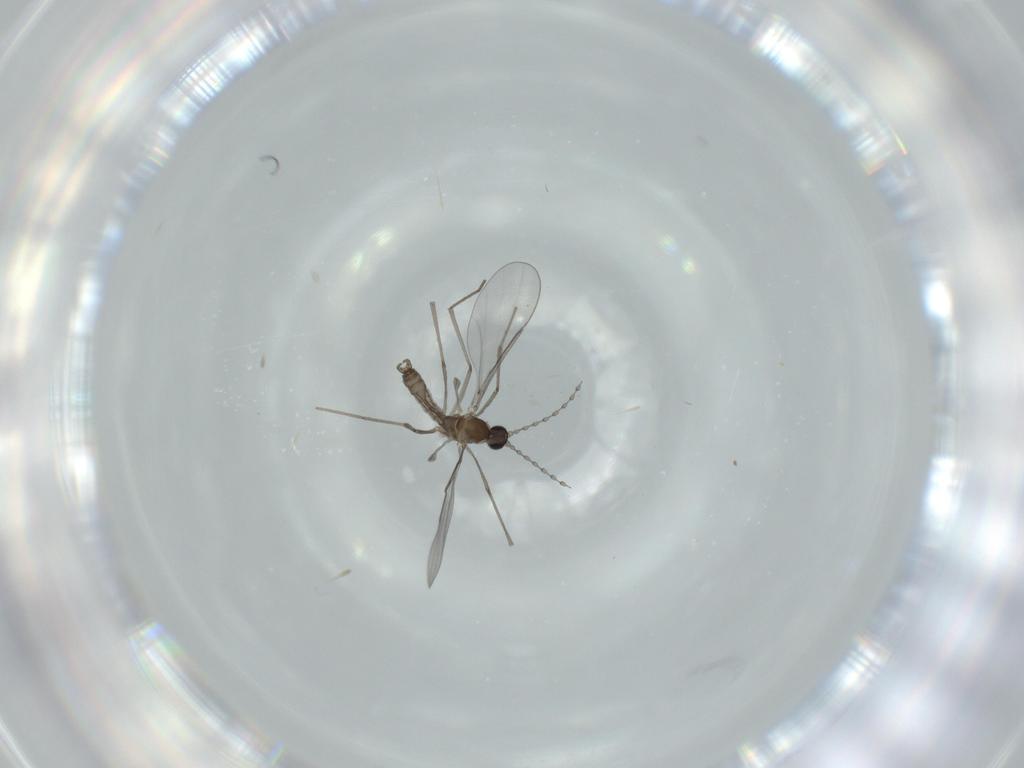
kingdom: Animalia
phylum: Arthropoda
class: Insecta
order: Diptera
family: Cecidomyiidae
